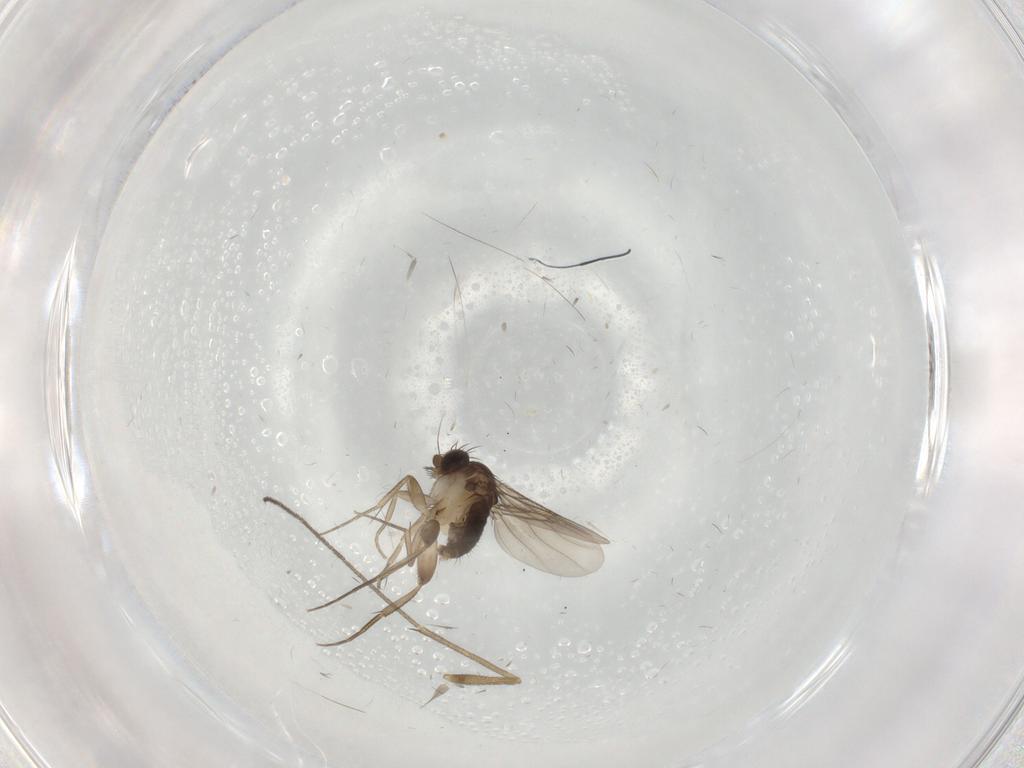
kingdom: Animalia
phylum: Arthropoda
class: Insecta
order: Diptera
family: Phoridae
